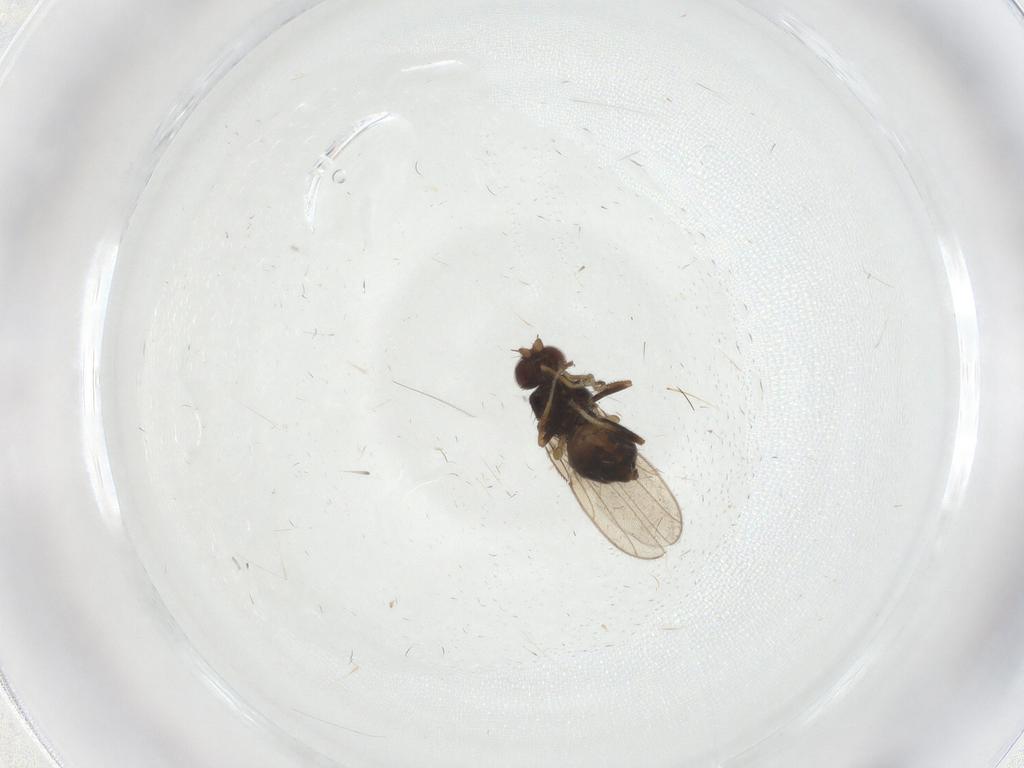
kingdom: Animalia
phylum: Arthropoda
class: Insecta
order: Diptera
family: Chloropidae
